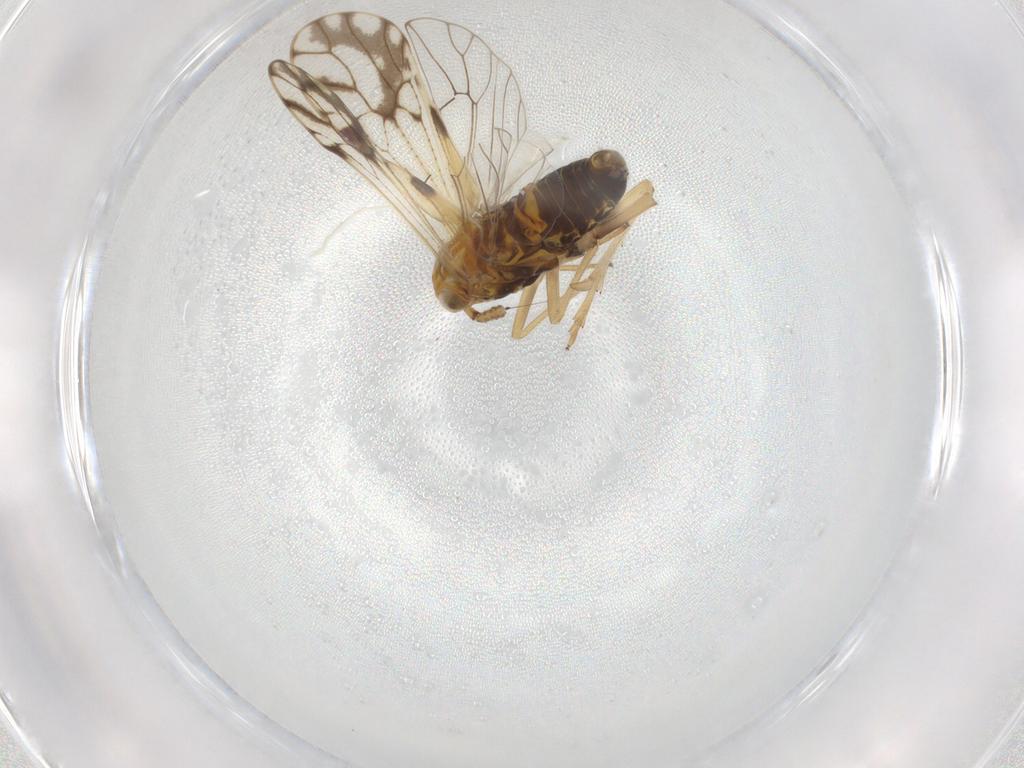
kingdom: Animalia
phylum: Arthropoda
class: Insecta
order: Hemiptera
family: Delphacidae
